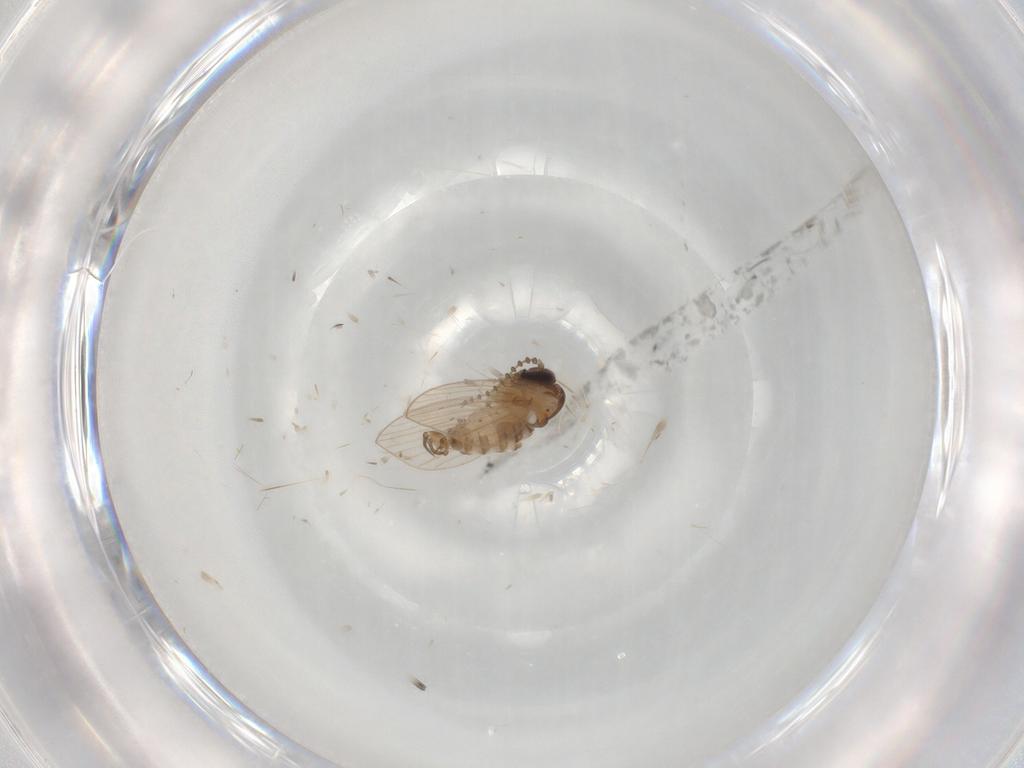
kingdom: Animalia
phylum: Arthropoda
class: Insecta
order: Diptera
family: Psychodidae
